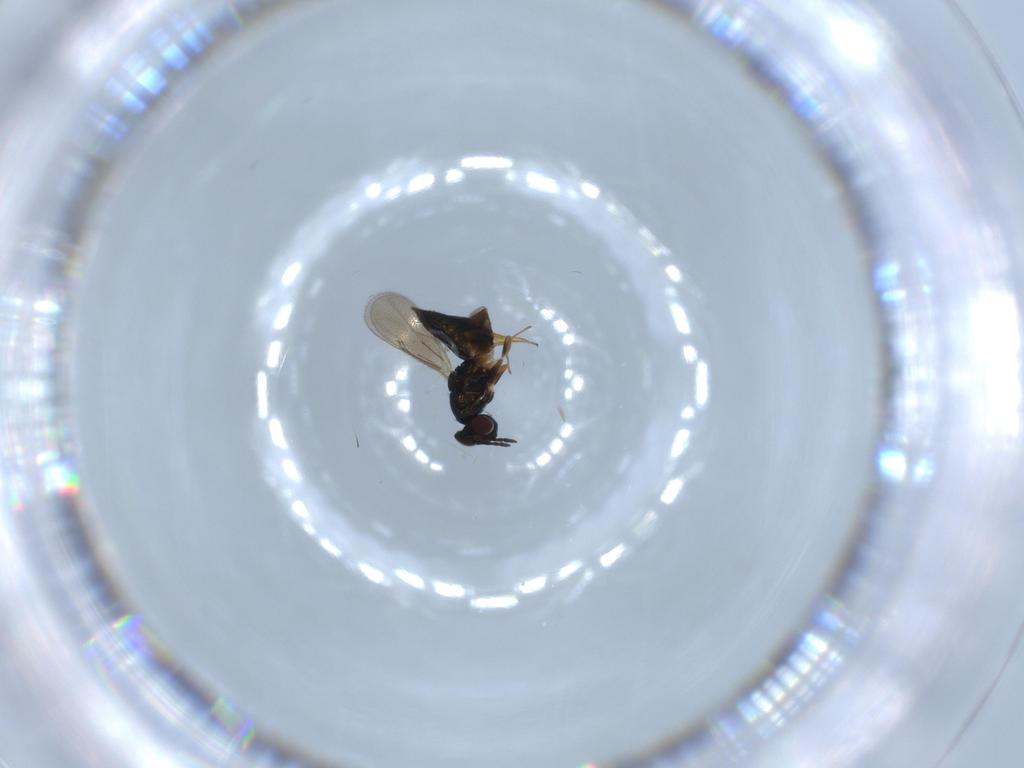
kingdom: Animalia
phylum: Arthropoda
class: Insecta
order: Hymenoptera
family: Eulophidae
